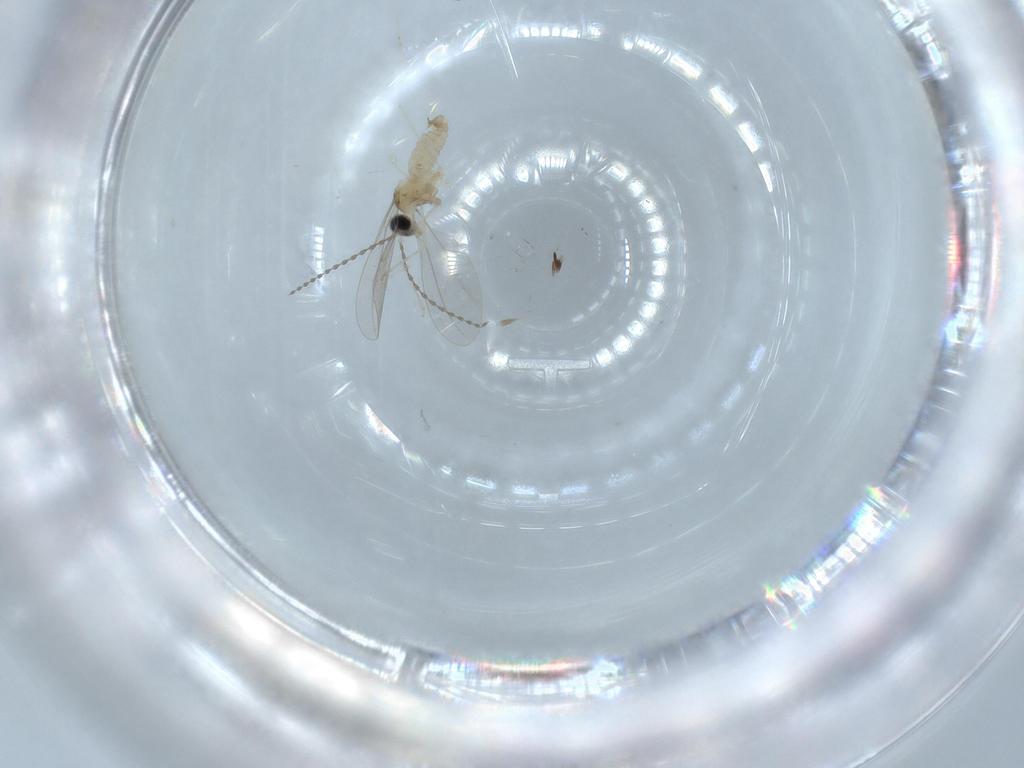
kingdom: Animalia
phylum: Arthropoda
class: Insecta
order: Diptera
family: Cecidomyiidae
